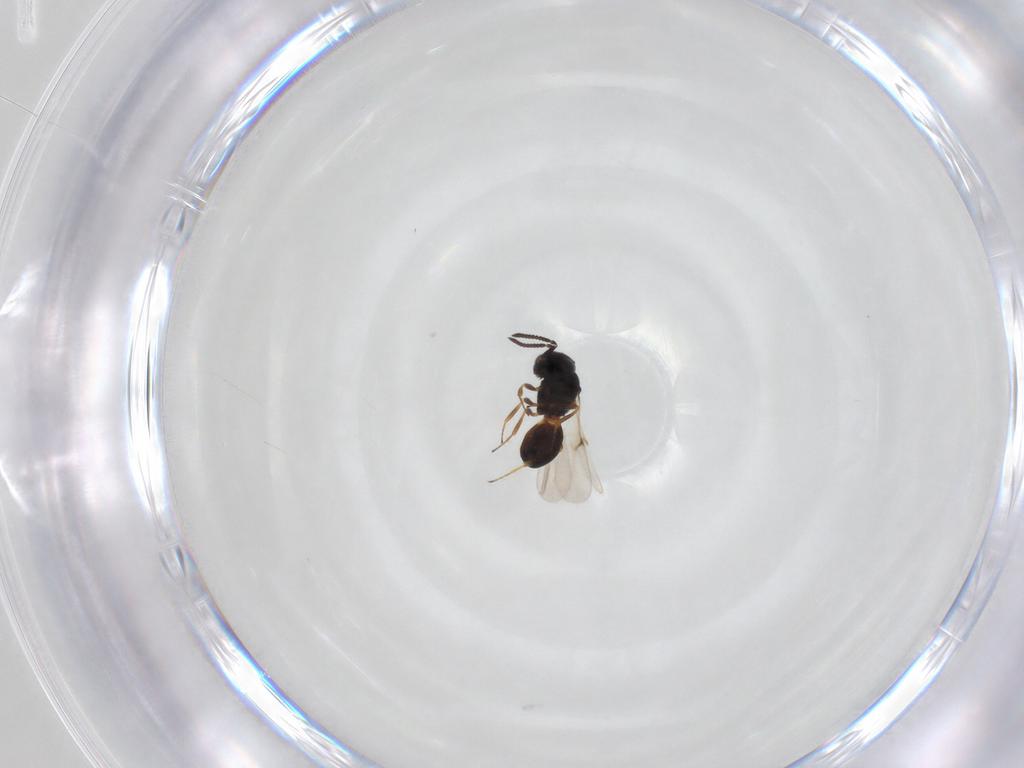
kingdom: Animalia
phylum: Arthropoda
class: Arachnida
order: Araneae
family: Pholcidae
